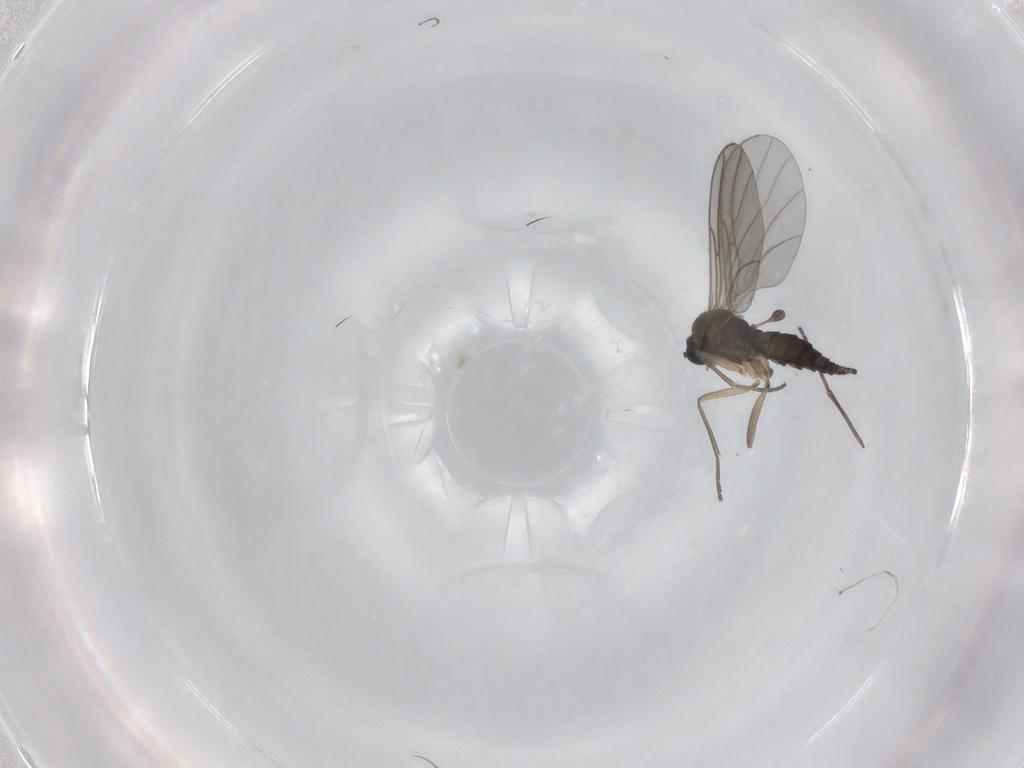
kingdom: Animalia
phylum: Arthropoda
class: Insecta
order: Diptera
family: Sciaridae
